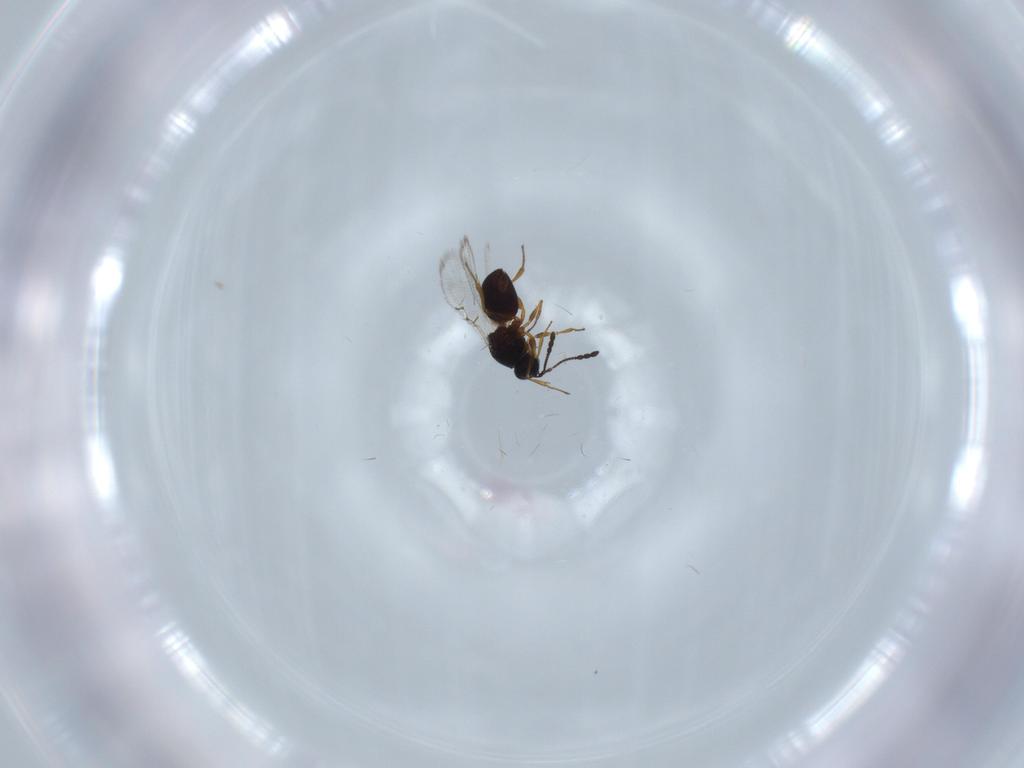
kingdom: Animalia
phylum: Arthropoda
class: Insecta
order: Hymenoptera
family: Figitidae
